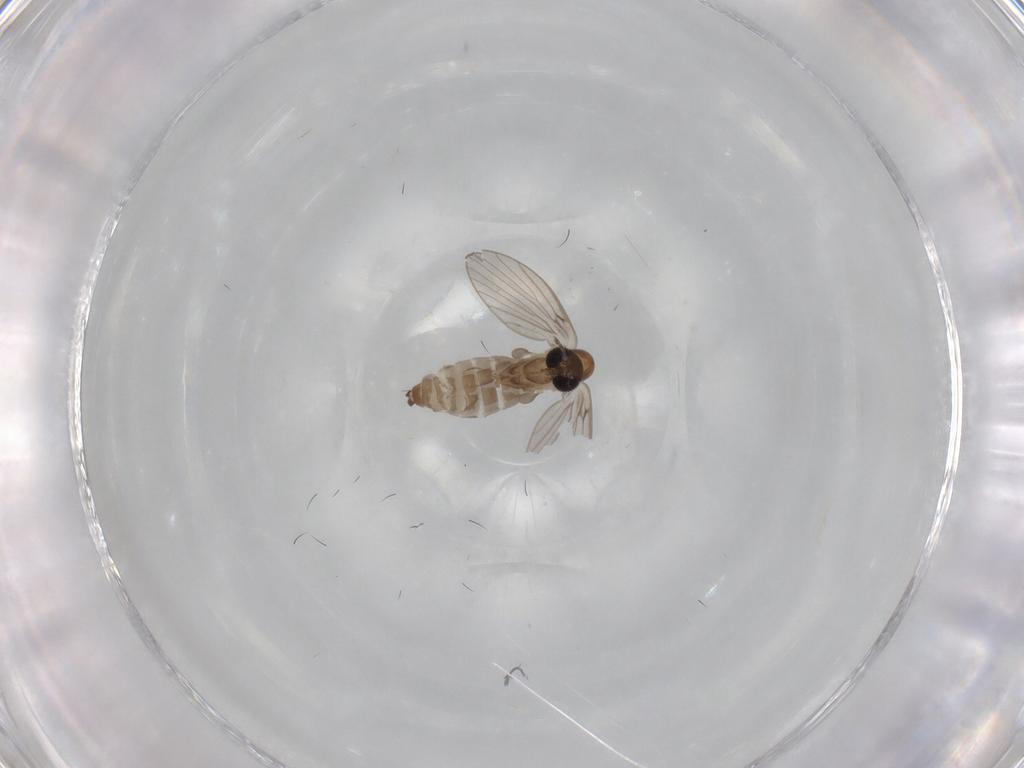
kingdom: Animalia
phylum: Arthropoda
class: Insecta
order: Diptera
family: Psychodidae
